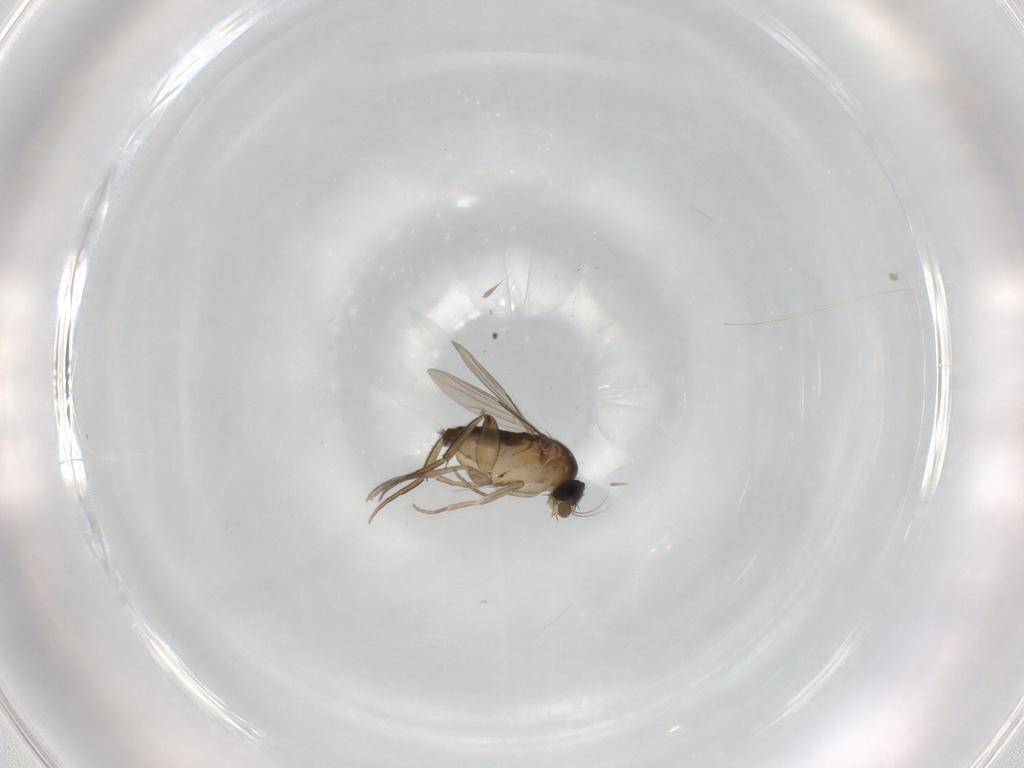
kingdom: Animalia
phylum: Arthropoda
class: Insecta
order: Diptera
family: Phoridae
